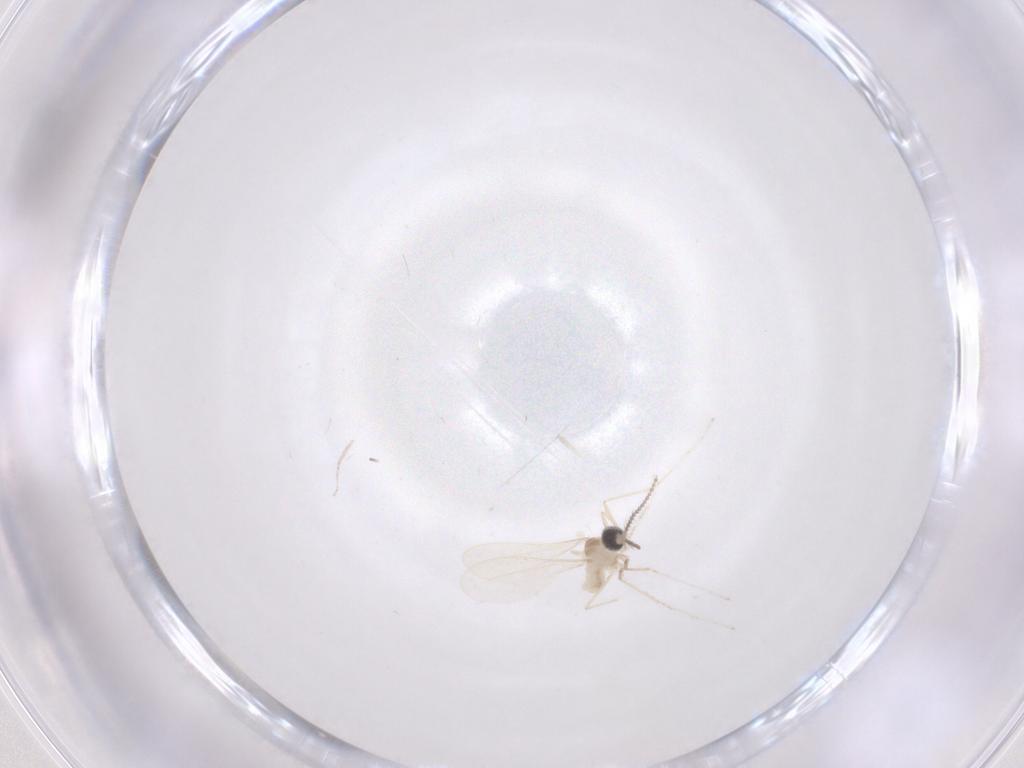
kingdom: Animalia
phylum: Arthropoda
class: Insecta
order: Diptera
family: Cecidomyiidae
